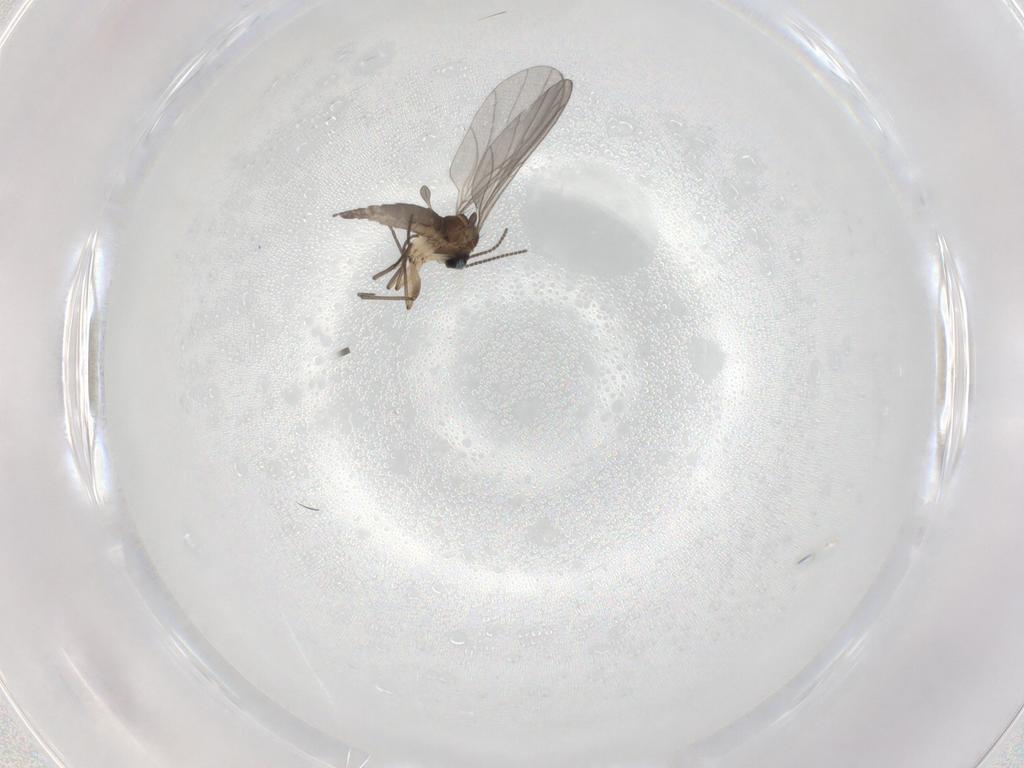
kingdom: Animalia
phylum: Arthropoda
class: Insecta
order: Diptera
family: Sciaridae
